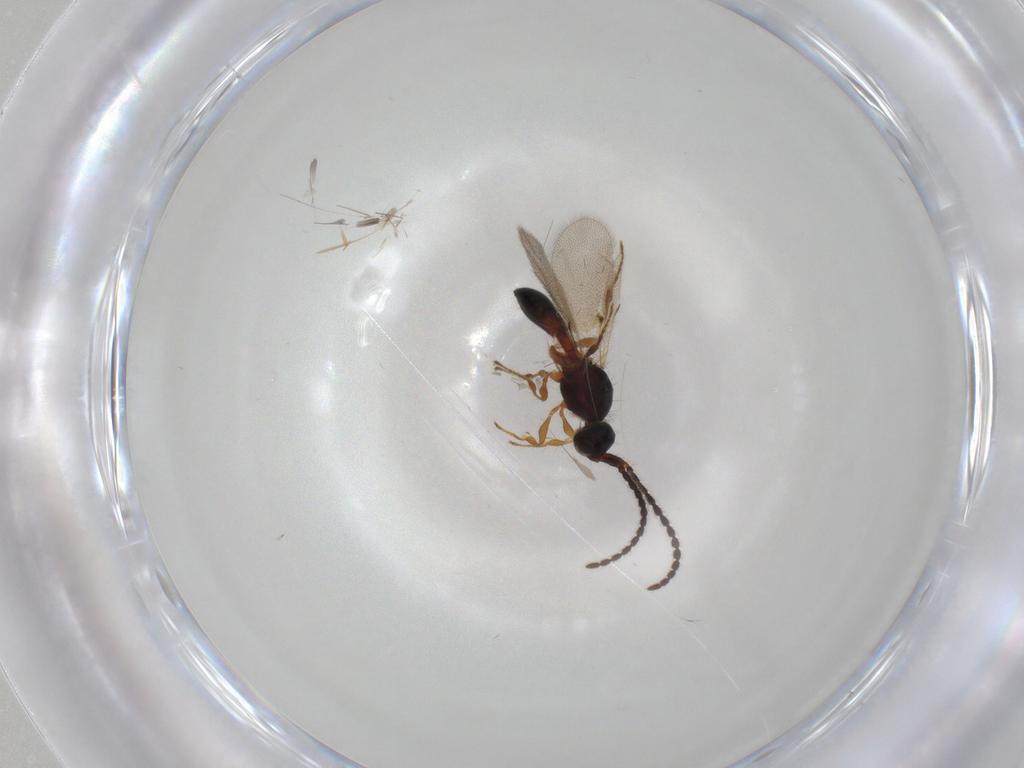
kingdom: Animalia
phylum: Arthropoda
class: Insecta
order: Hymenoptera
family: Diapriidae
